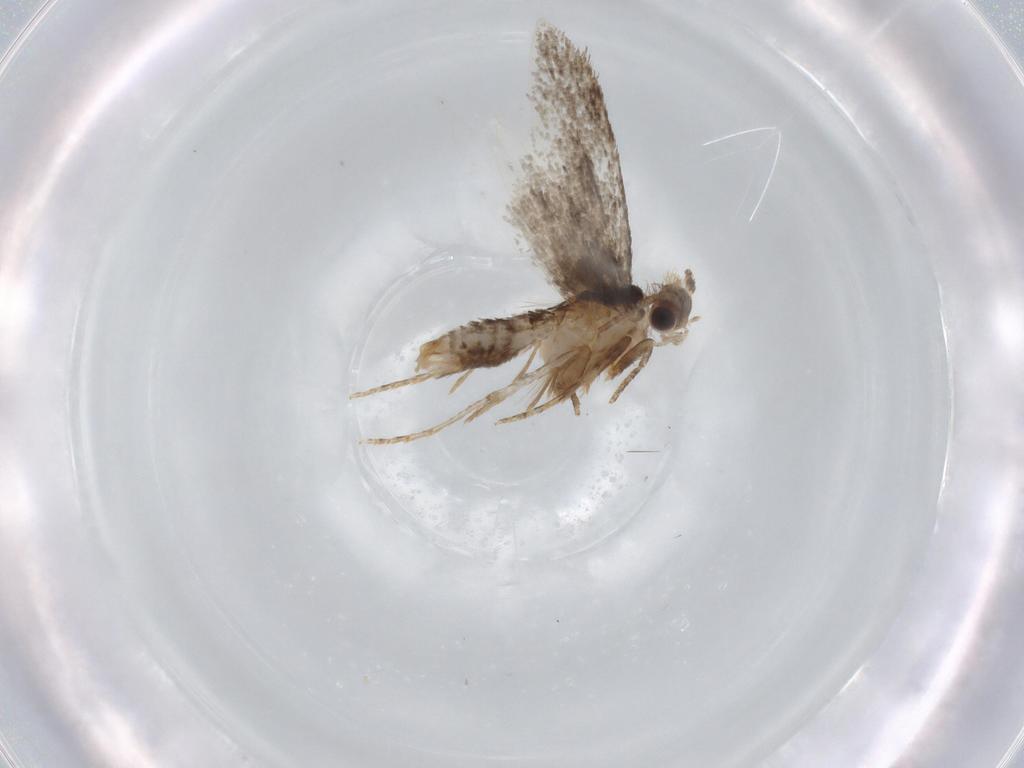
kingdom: Animalia
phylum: Arthropoda
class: Insecta
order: Lepidoptera
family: Tineidae
